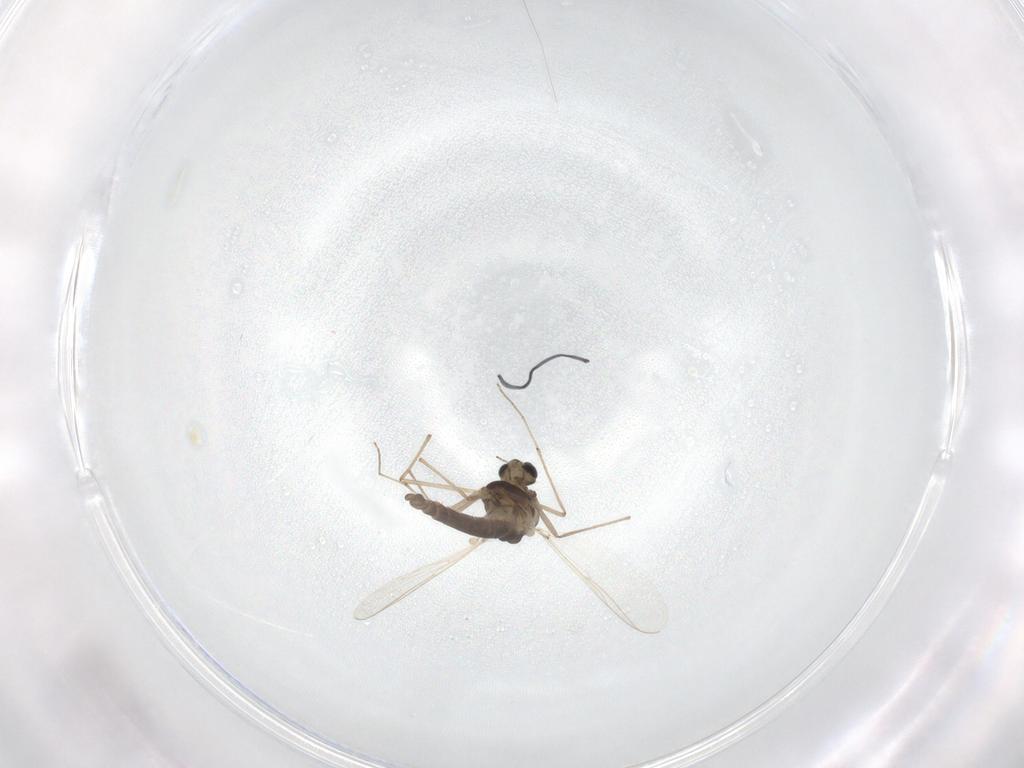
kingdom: Animalia
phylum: Arthropoda
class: Insecta
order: Diptera
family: Chironomidae
